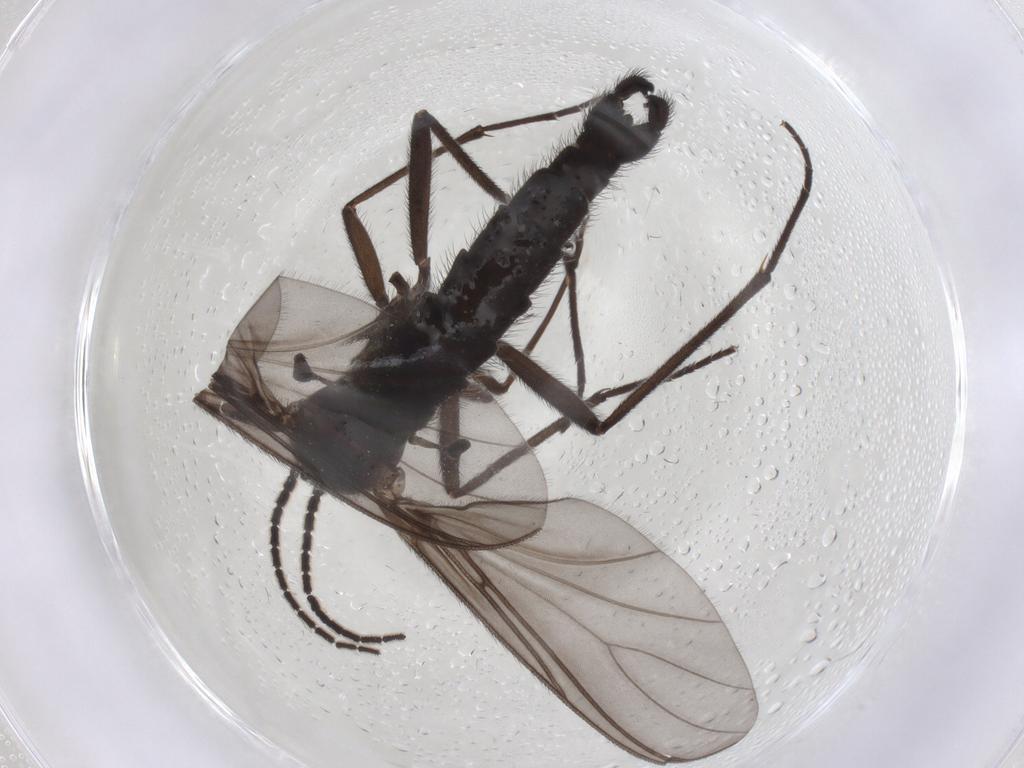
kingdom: Animalia
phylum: Arthropoda
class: Insecta
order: Diptera
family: Sciaridae
